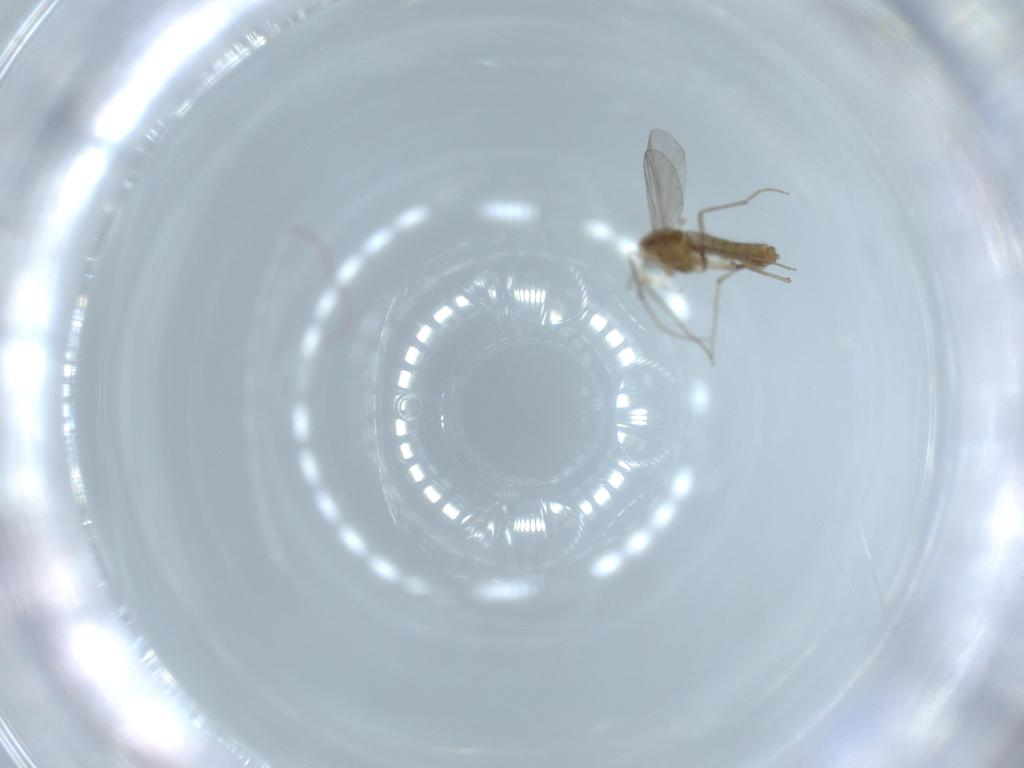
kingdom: Animalia
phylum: Arthropoda
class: Insecta
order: Diptera
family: Chironomidae
